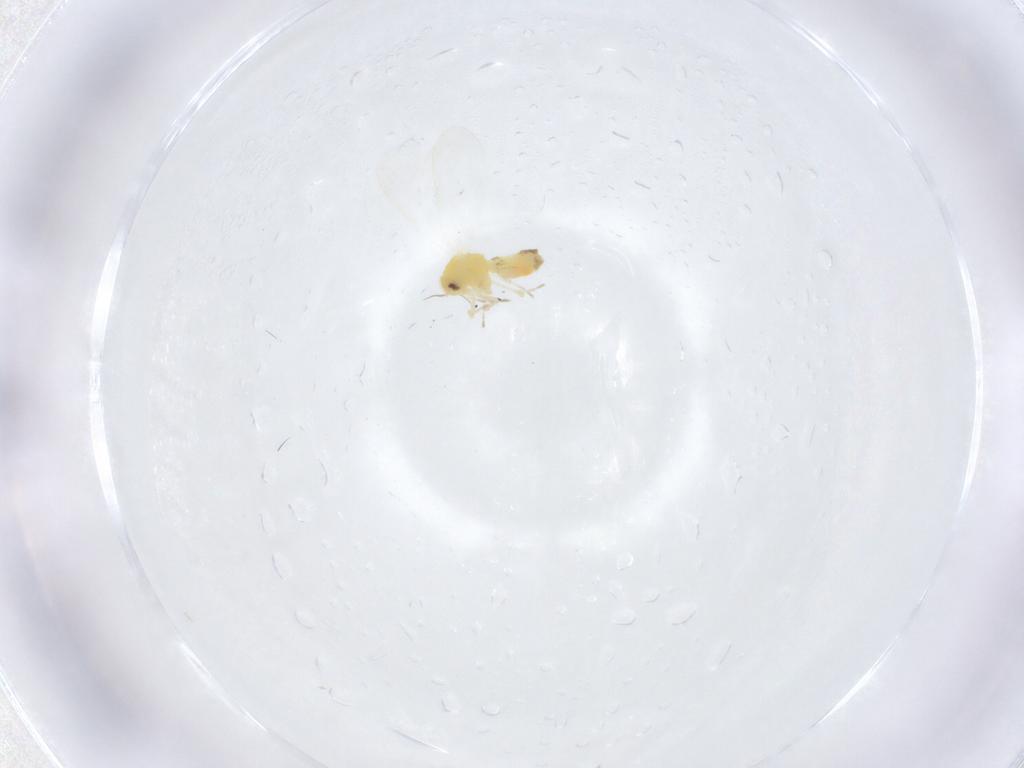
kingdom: Animalia
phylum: Arthropoda
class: Insecta
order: Hemiptera
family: Aleyrodidae
